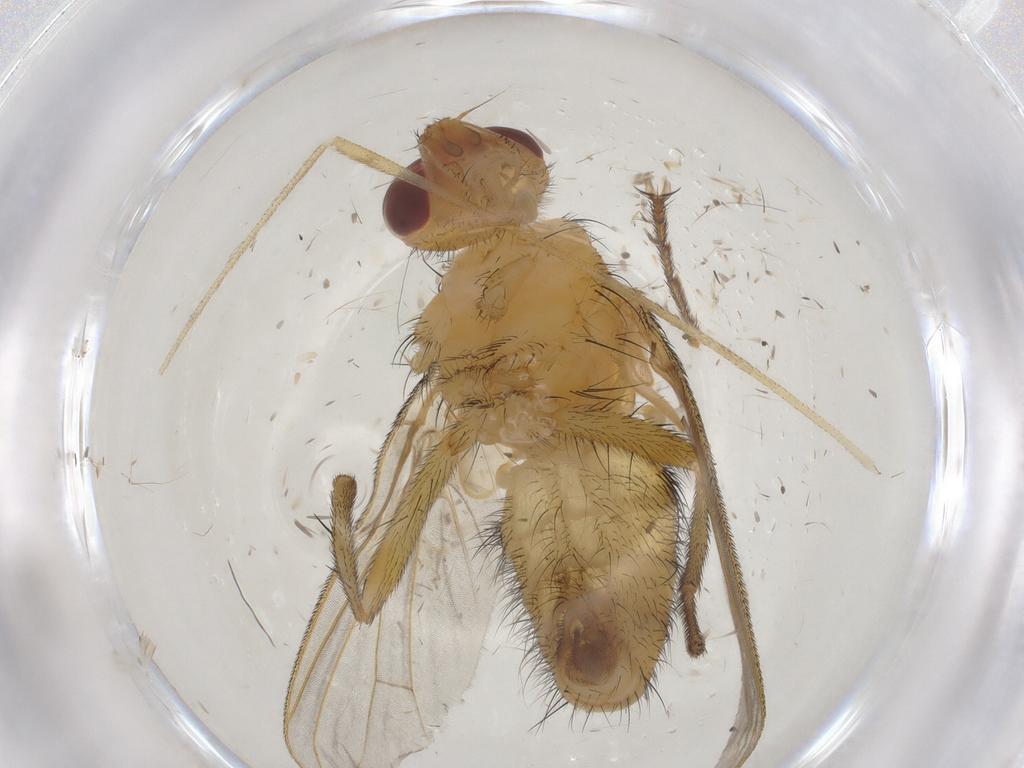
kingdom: Animalia
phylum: Arthropoda
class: Insecta
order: Diptera
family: Tachinidae
